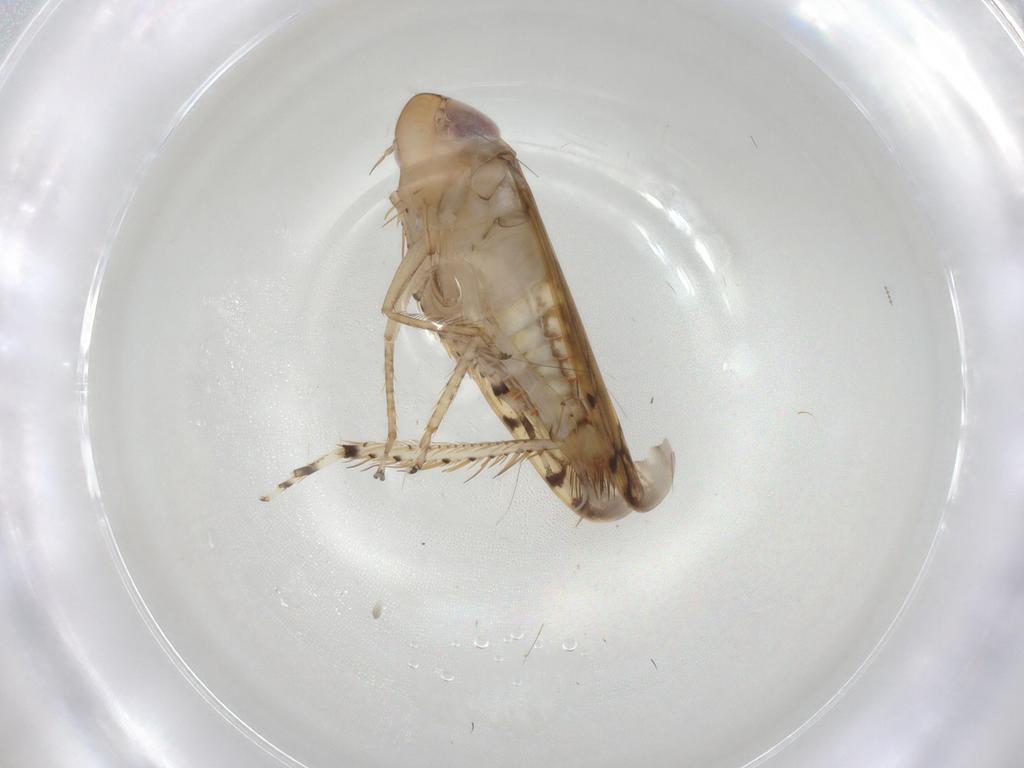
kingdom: Animalia
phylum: Arthropoda
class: Insecta
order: Hemiptera
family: Cicadellidae
